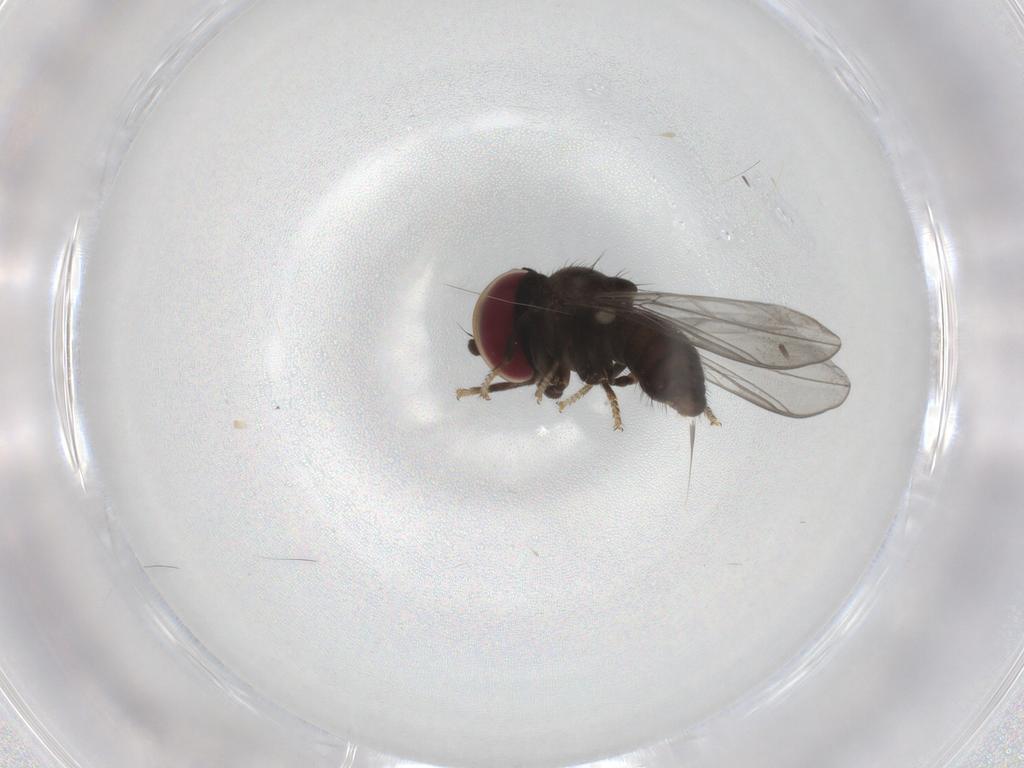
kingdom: Animalia
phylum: Arthropoda
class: Insecta
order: Diptera
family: Pipunculidae
